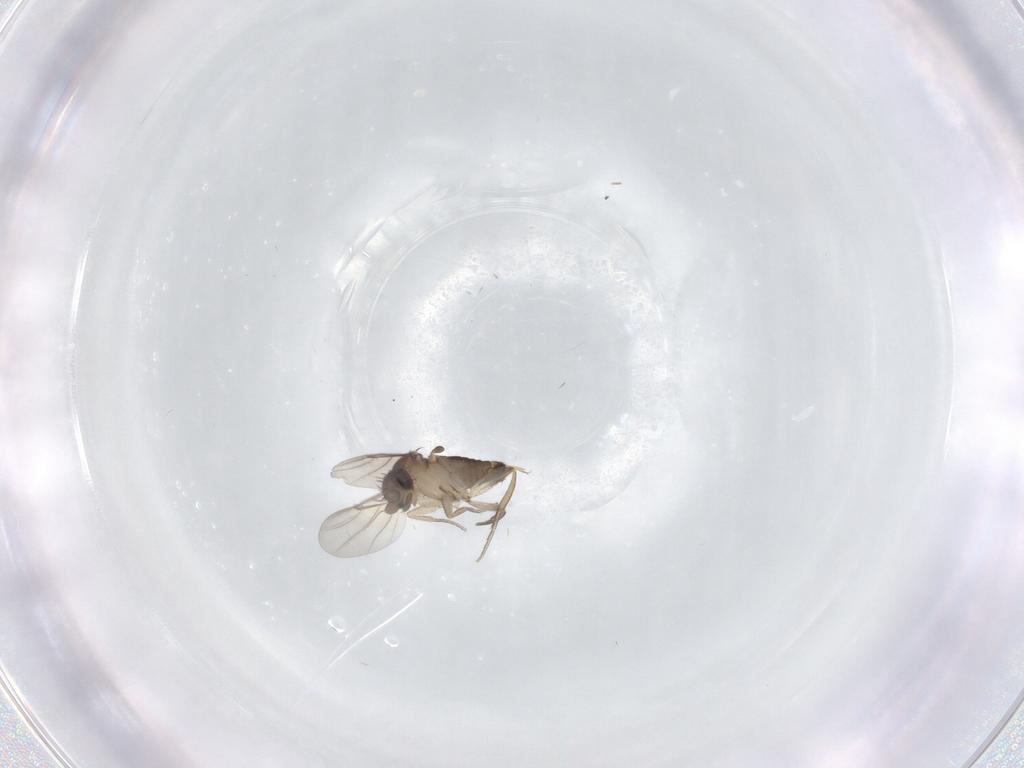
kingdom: Animalia
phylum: Arthropoda
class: Insecta
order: Diptera
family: Phoridae
